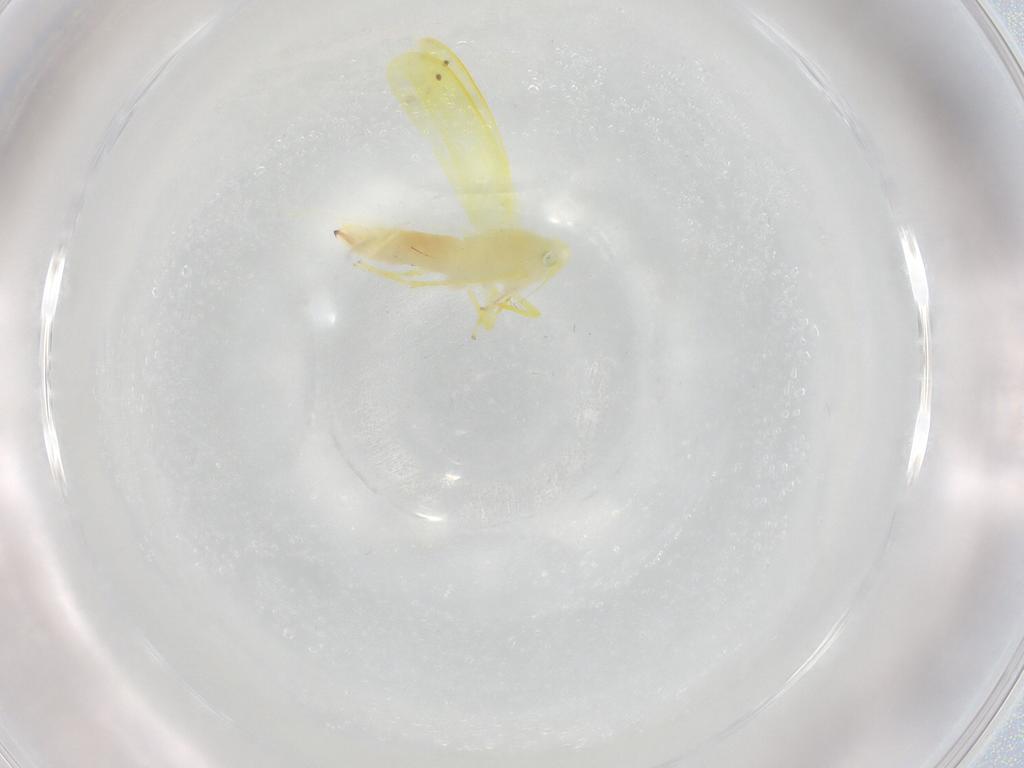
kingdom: Animalia
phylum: Arthropoda
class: Insecta
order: Hemiptera
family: Cicadellidae
